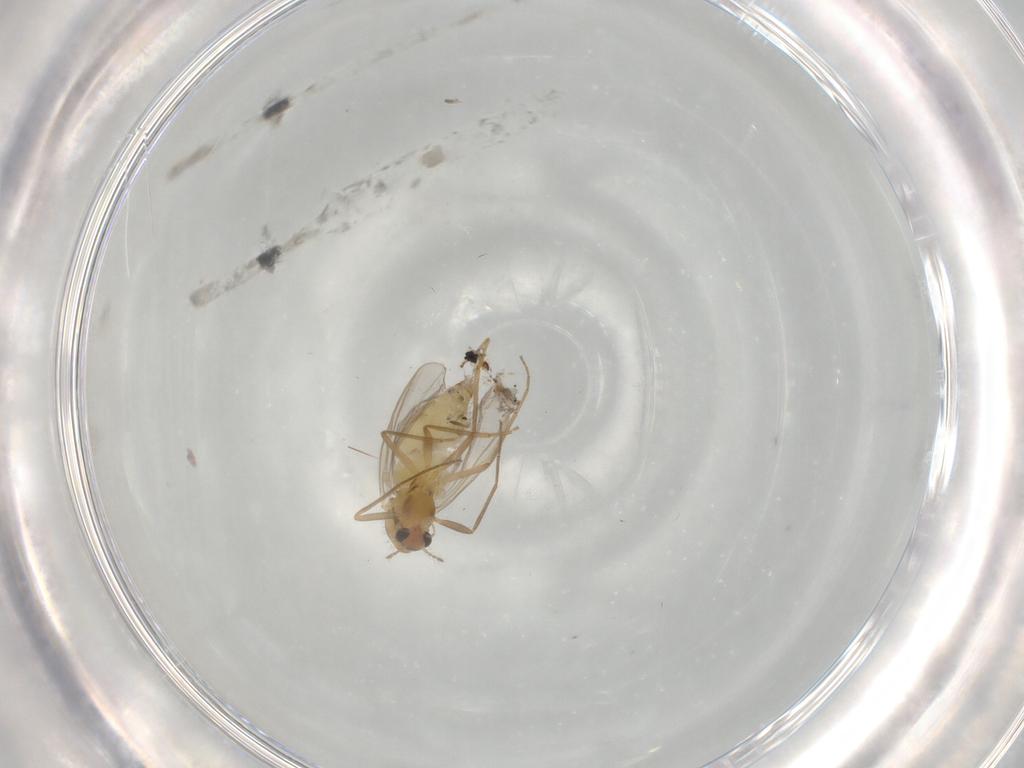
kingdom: Animalia
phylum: Arthropoda
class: Insecta
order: Diptera
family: Chironomidae
